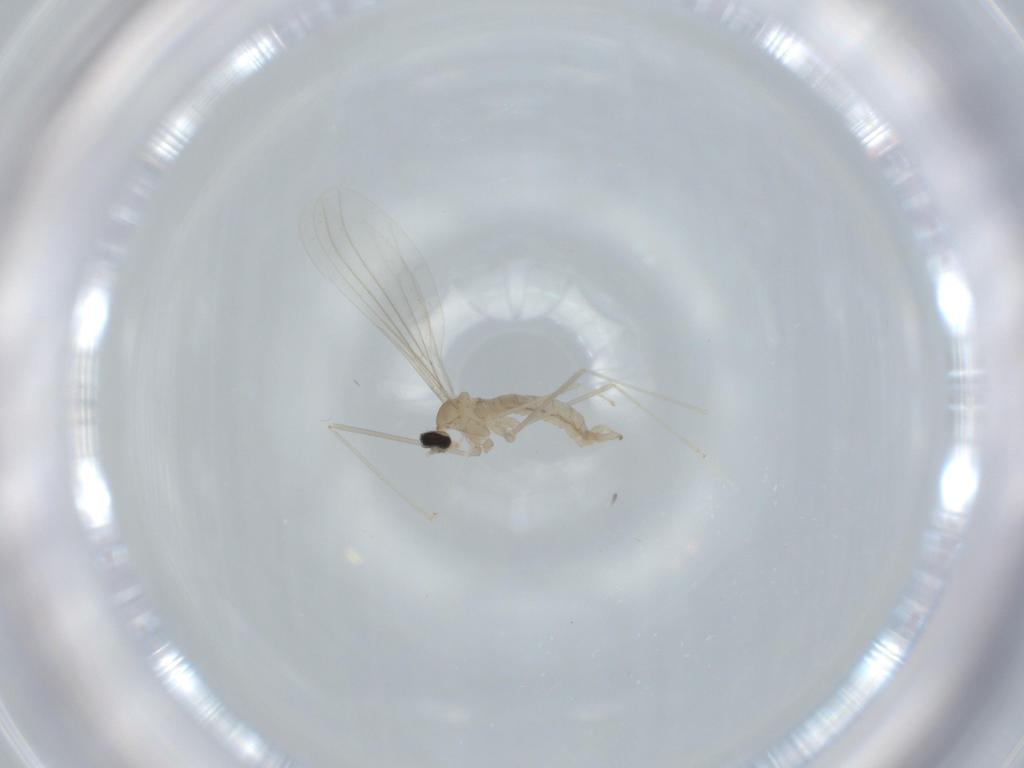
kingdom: Animalia
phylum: Arthropoda
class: Insecta
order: Diptera
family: Cecidomyiidae
